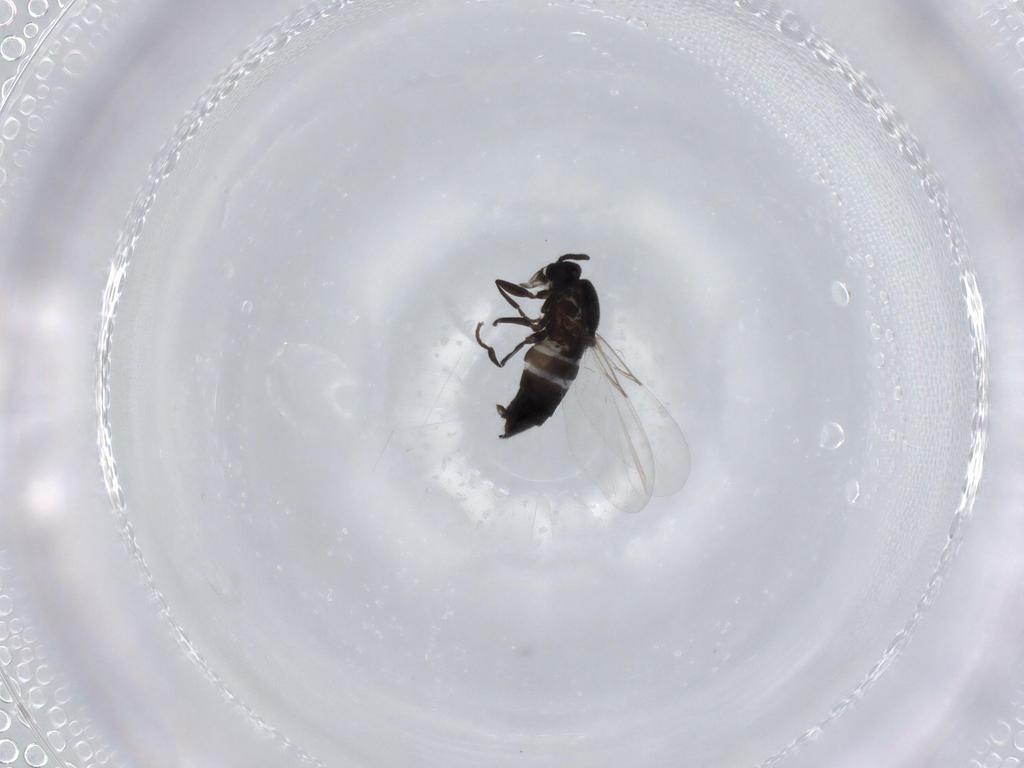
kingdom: Animalia
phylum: Arthropoda
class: Insecta
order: Diptera
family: Scatopsidae
